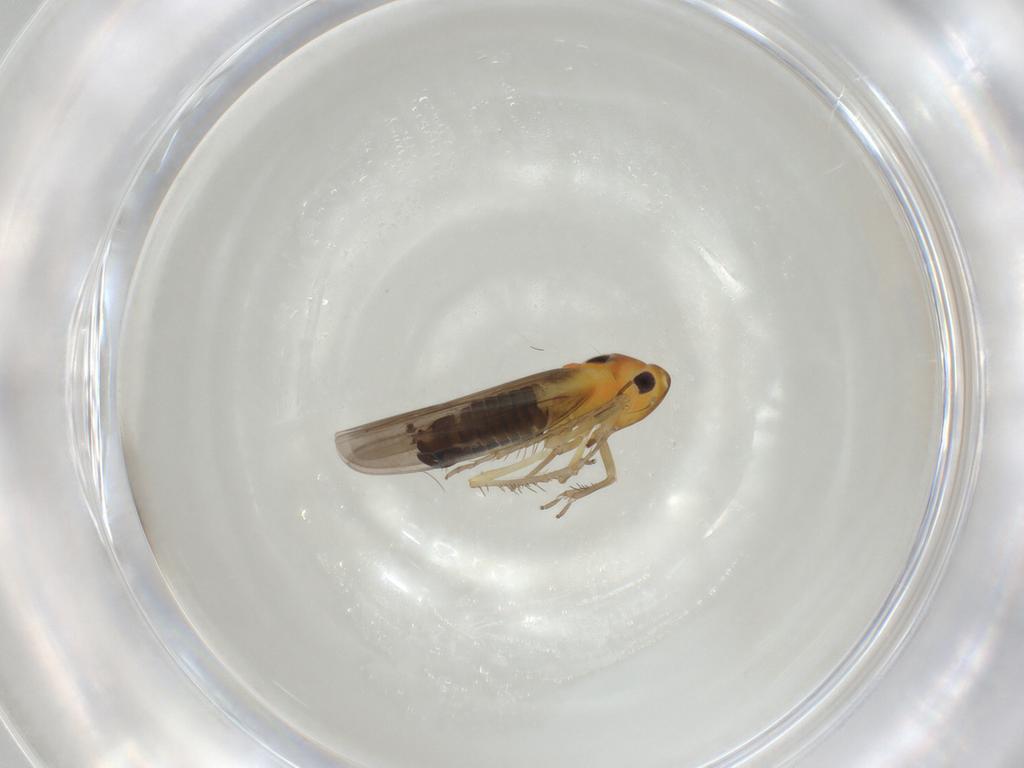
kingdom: Animalia
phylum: Arthropoda
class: Insecta
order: Hemiptera
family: Cicadellidae
